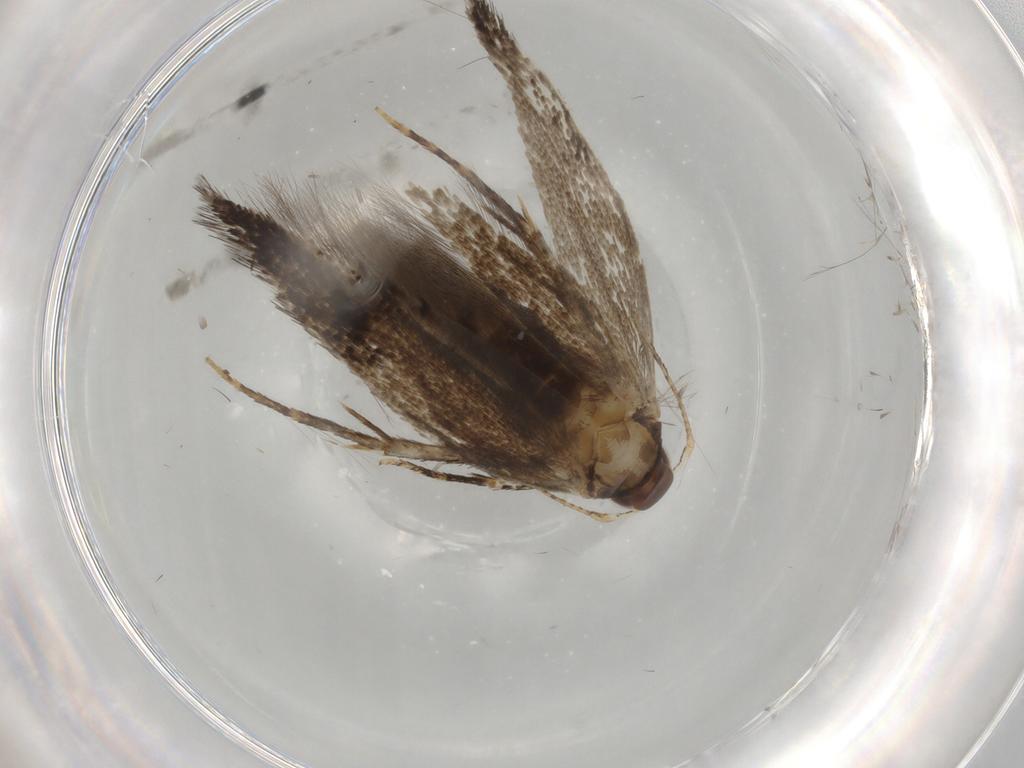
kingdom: Animalia
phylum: Arthropoda
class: Insecta
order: Lepidoptera
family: Cosmopterigidae
